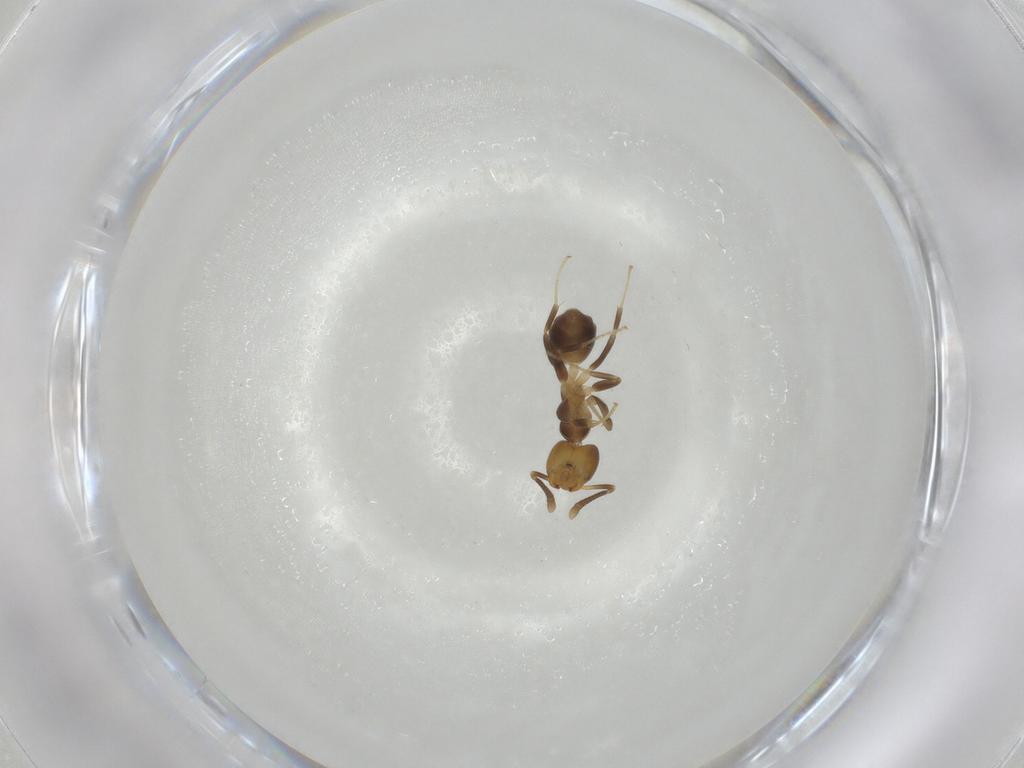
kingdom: Animalia
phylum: Arthropoda
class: Insecta
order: Hymenoptera
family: Formicidae
